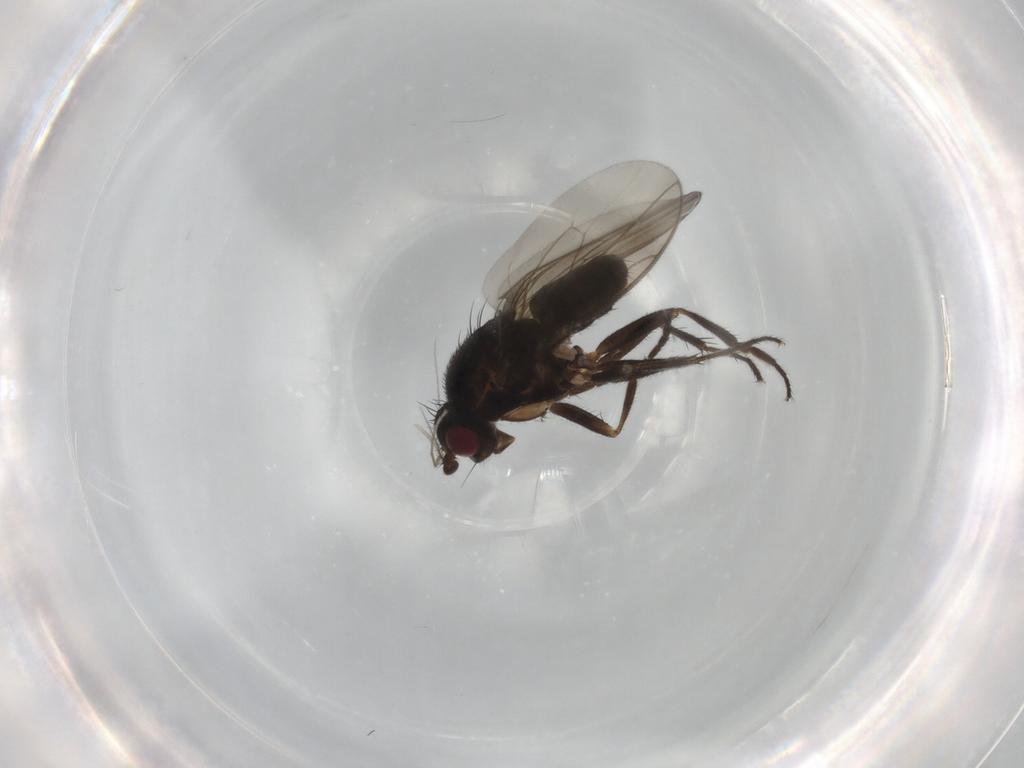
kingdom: Animalia
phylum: Arthropoda
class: Insecta
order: Diptera
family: Sphaeroceridae
